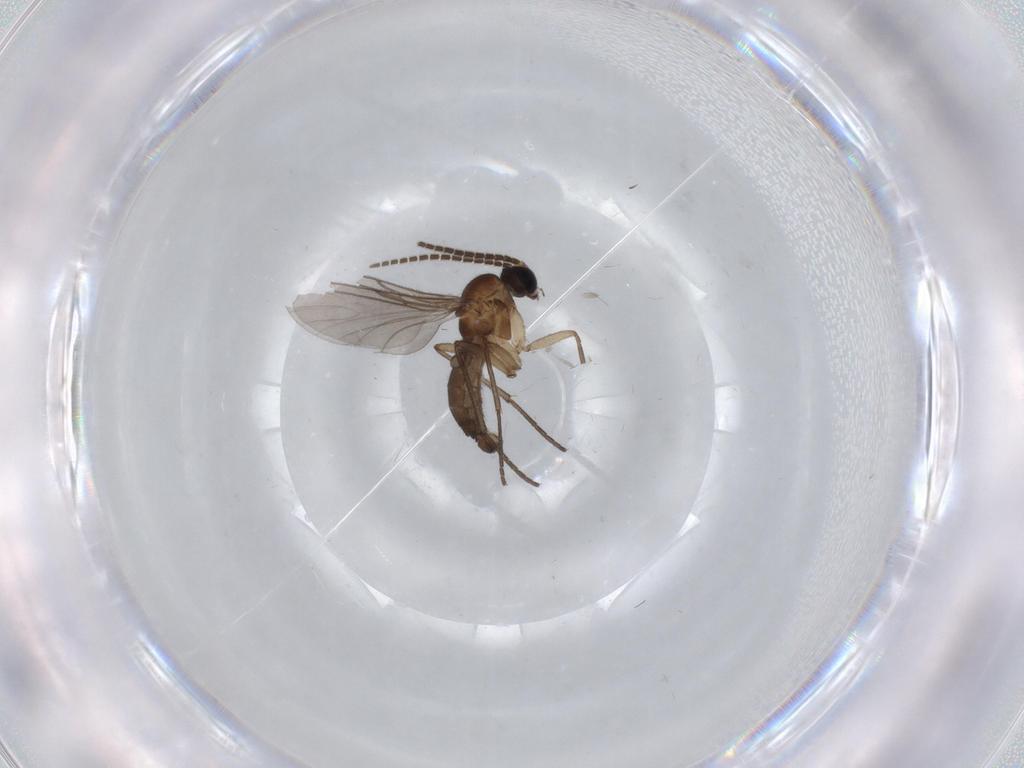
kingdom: Animalia
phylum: Arthropoda
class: Insecta
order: Diptera
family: Sciaridae
